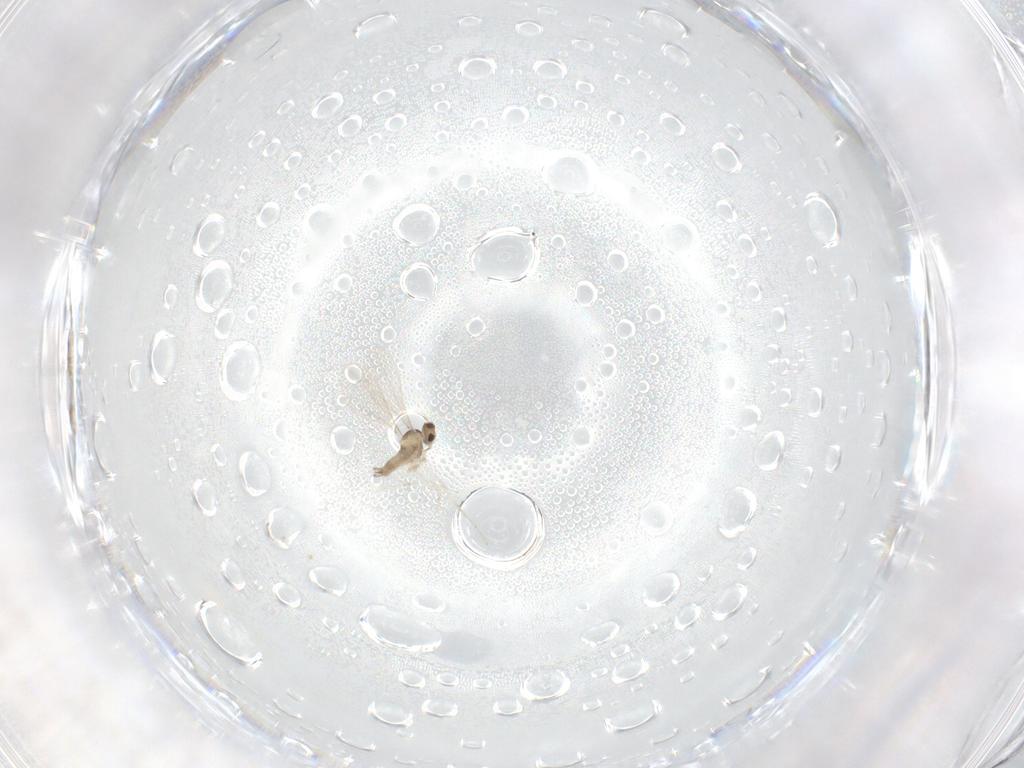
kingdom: Animalia
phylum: Arthropoda
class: Insecta
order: Diptera
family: Cecidomyiidae
